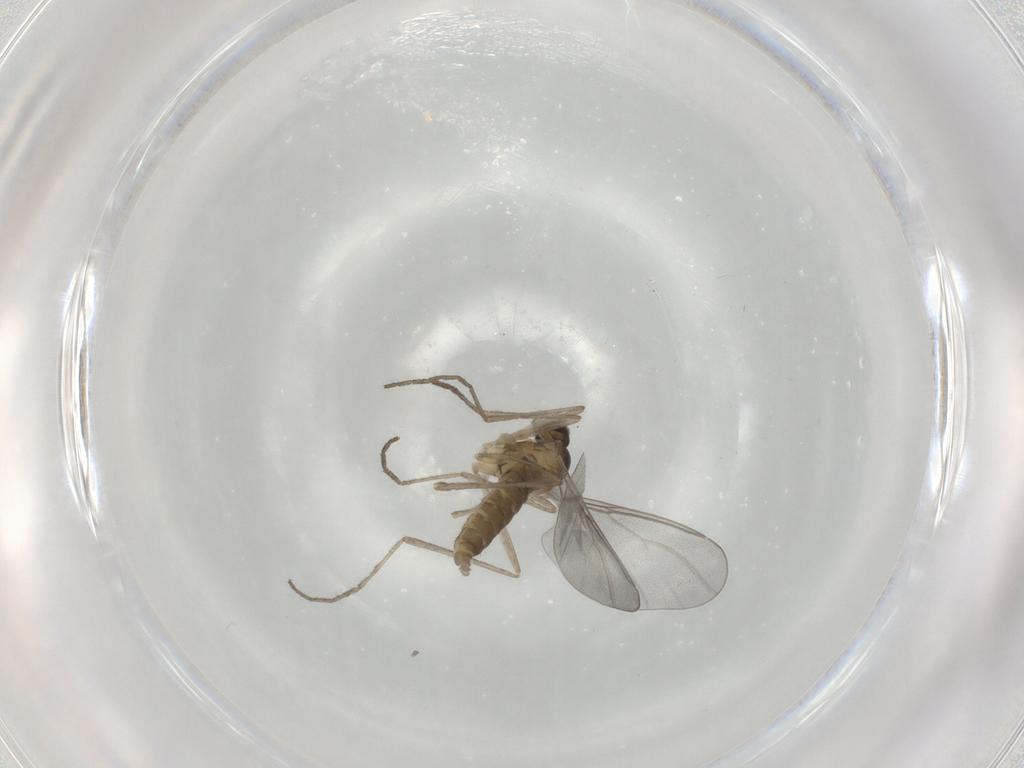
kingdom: Animalia
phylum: Arthropoda
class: Insecta
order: Diptera
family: Cecidomyiidae
